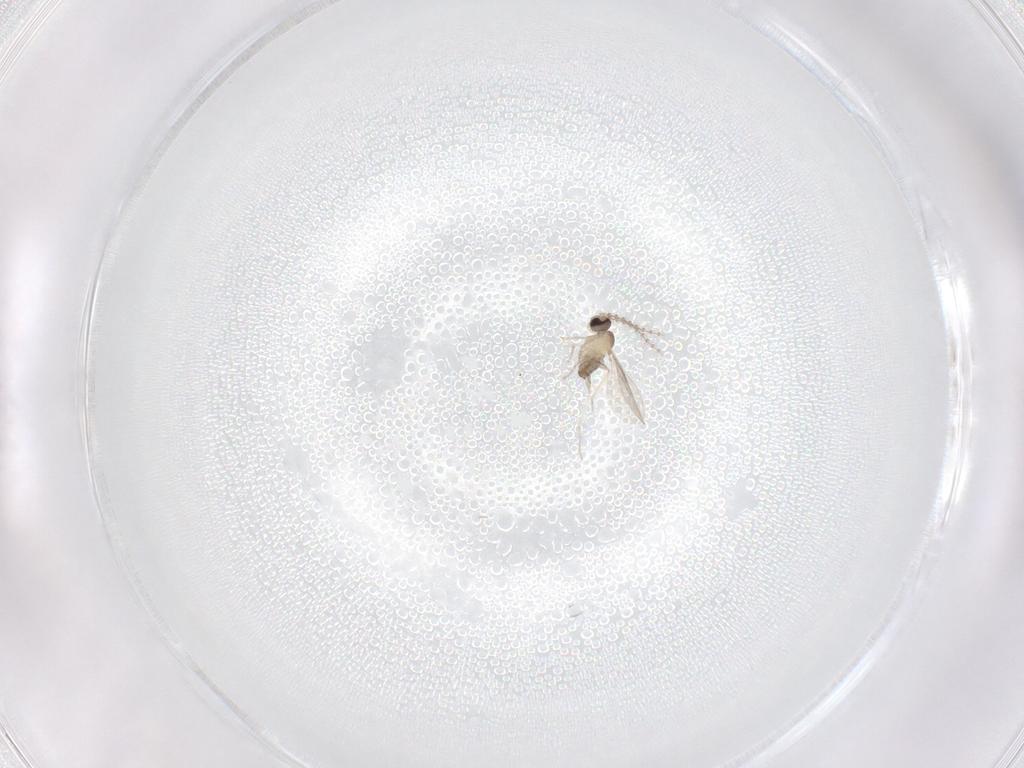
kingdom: Animalia
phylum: Arthropoda
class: Insecta
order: Diptera
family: Cecidomyiidae
